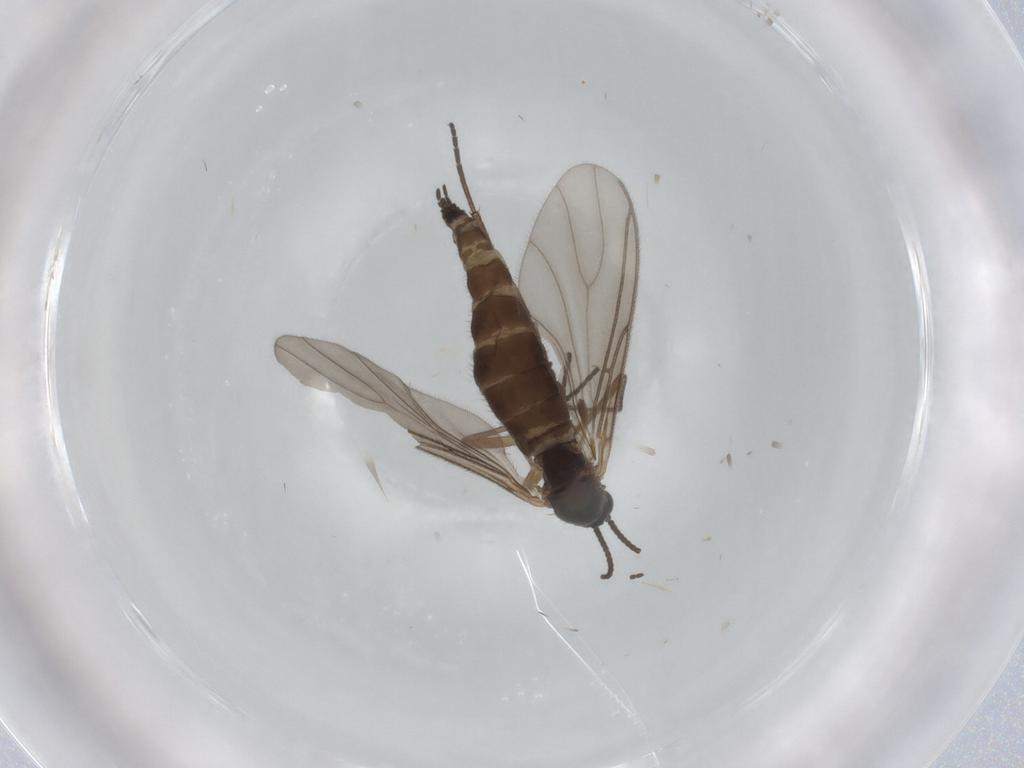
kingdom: Animalia
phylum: Arthropoda
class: Insecta
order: Diptera
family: Sciaridae
